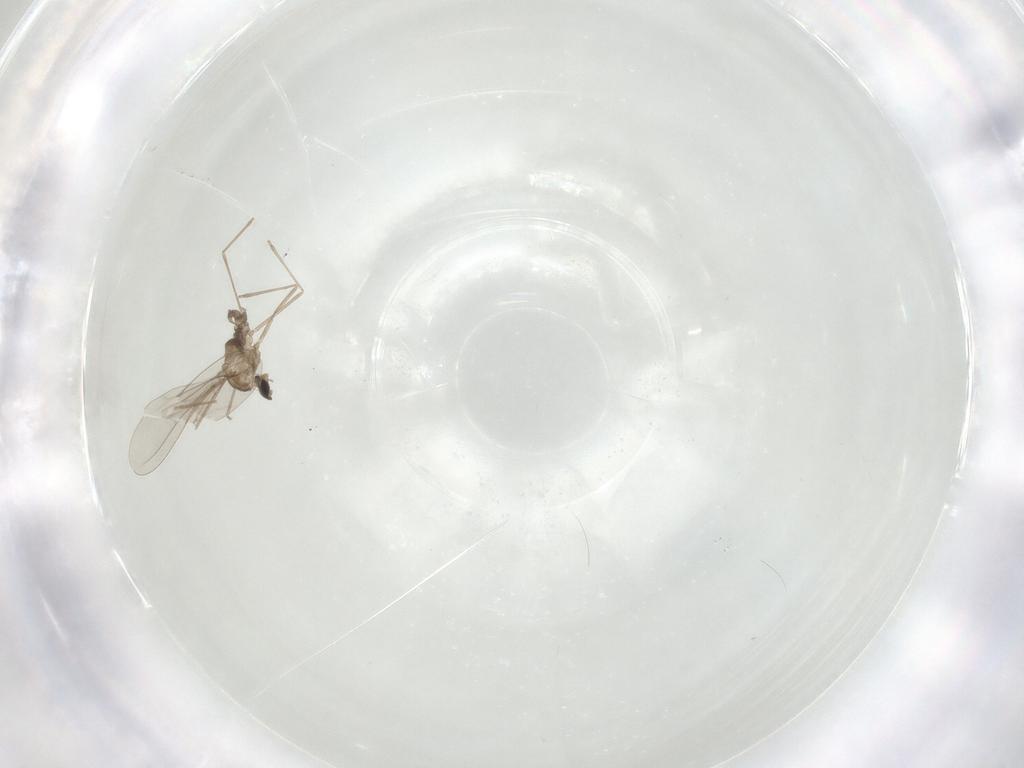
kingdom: Animalia
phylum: Arthropoda
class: Insecta
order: Diptera
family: Cecidomyiidae
